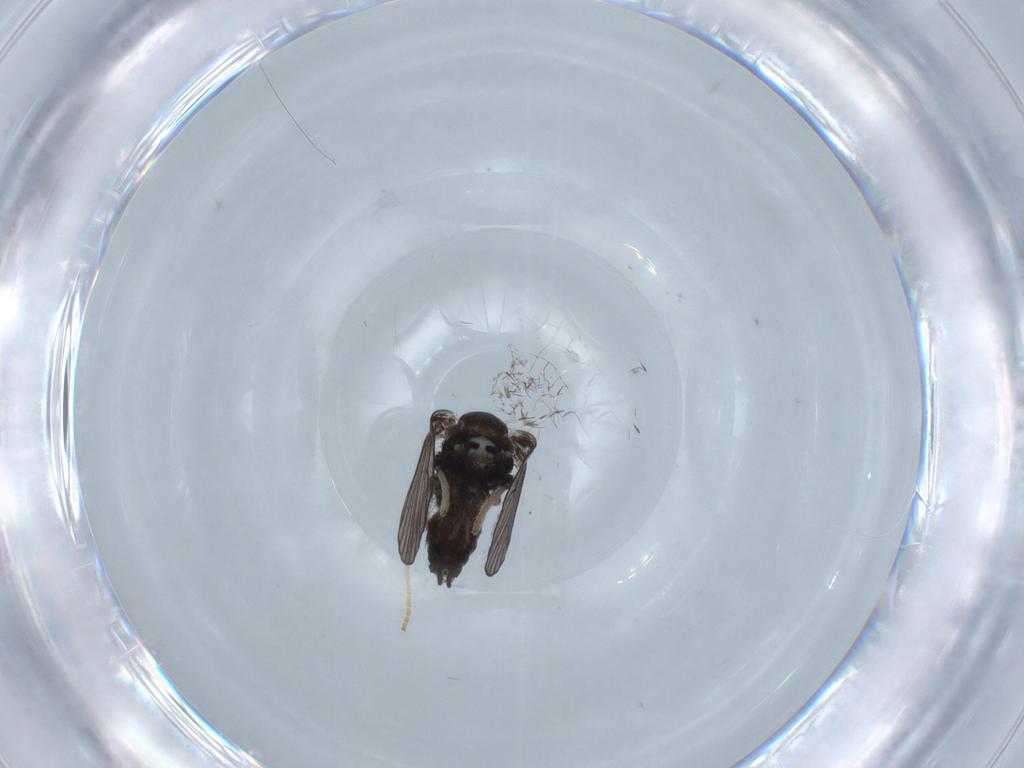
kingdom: Animalia
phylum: Arthropoda
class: Insecta
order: Diptera
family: Psychodidae
